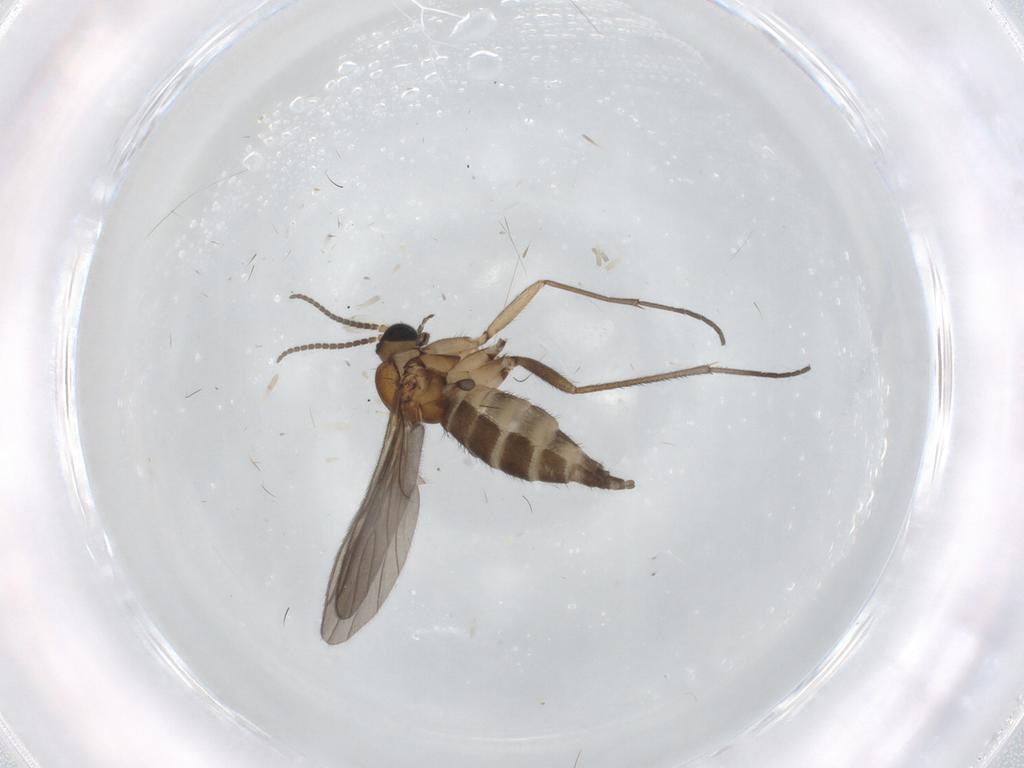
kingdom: Animalia
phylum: Arthropoda
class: Insecta
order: Diptera
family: Sciaridae
